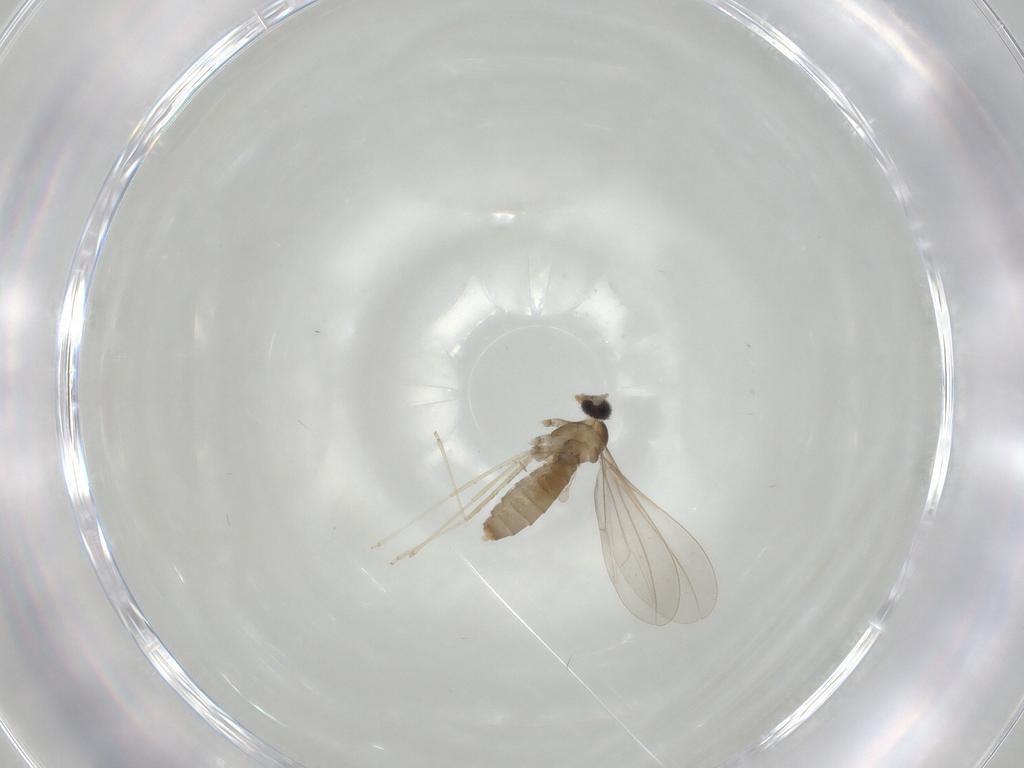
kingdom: Animalia
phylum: Arthropoda
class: Insecta
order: Diptera
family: Cecidomyiidae
